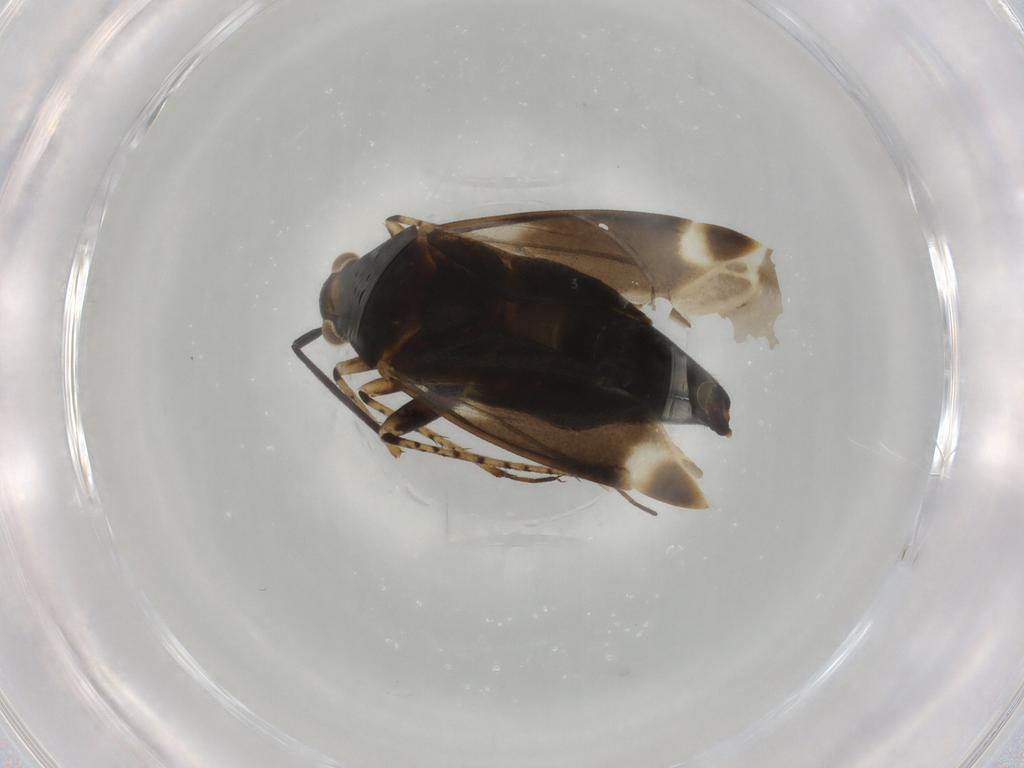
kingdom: Animalia
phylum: Arthropoda
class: Insecta
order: Hemiptera
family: Miridae
